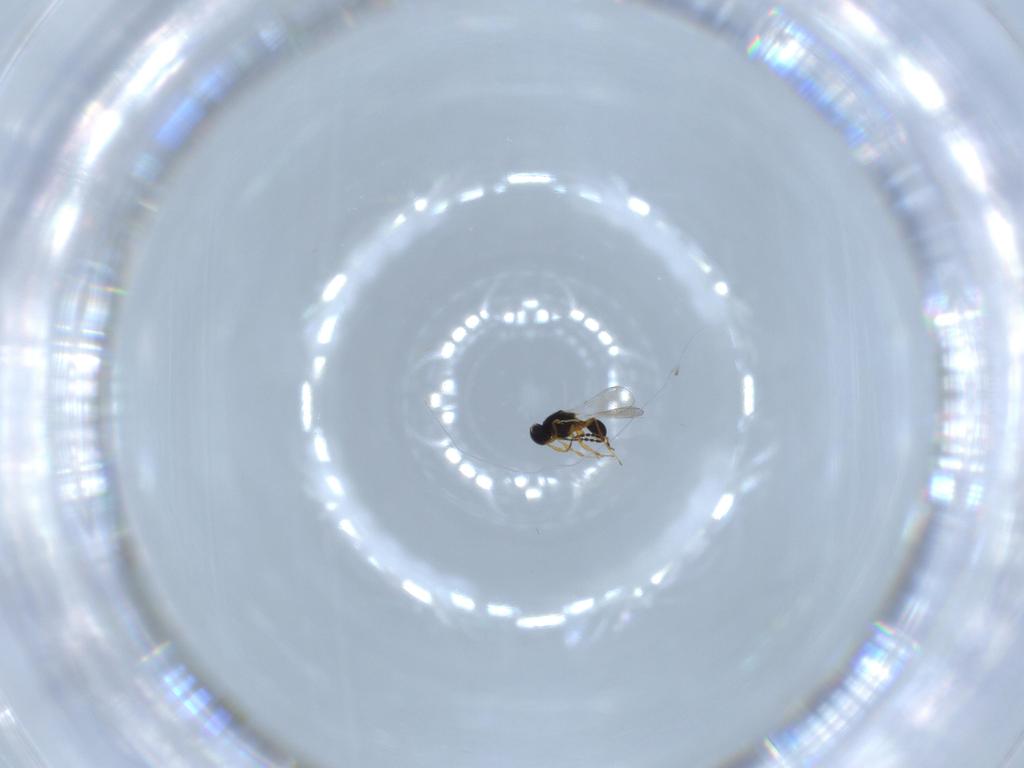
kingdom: Animalia
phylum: Arthropoda
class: Insecta
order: Hymenoptera
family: Platygastridae
